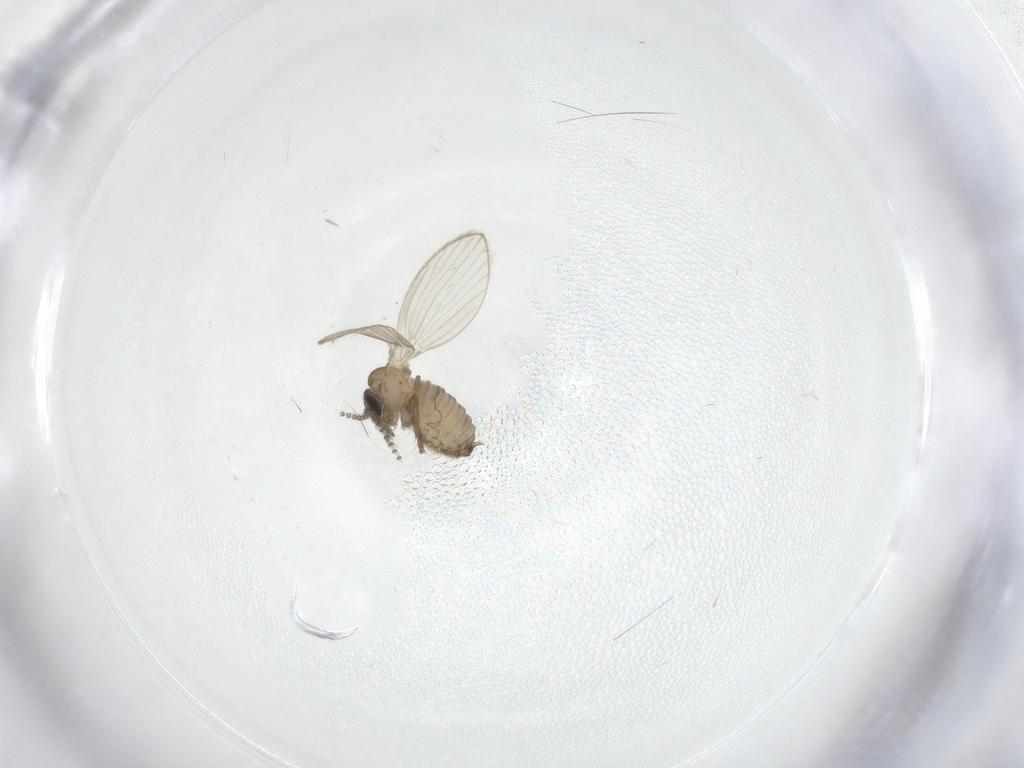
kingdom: Animalia
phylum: Arthropoda
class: Insecta
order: Diptera
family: Psychodidae
